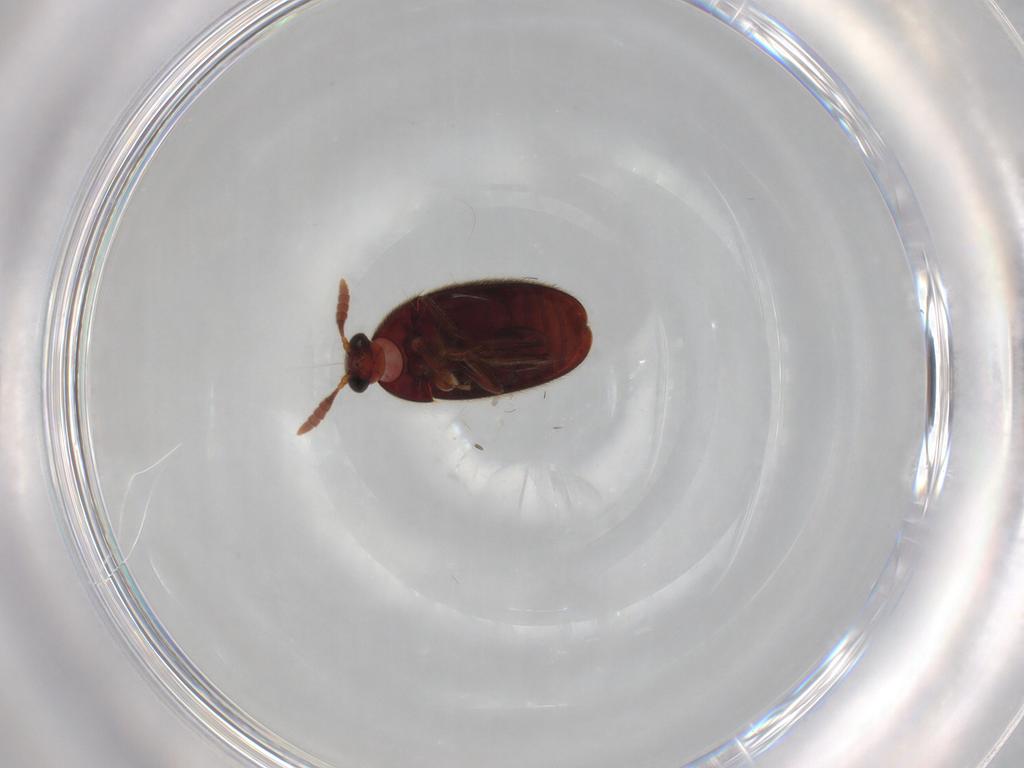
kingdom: Animalia
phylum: Arthropoda
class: Insecta
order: Coleoptera
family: Leiodidae
